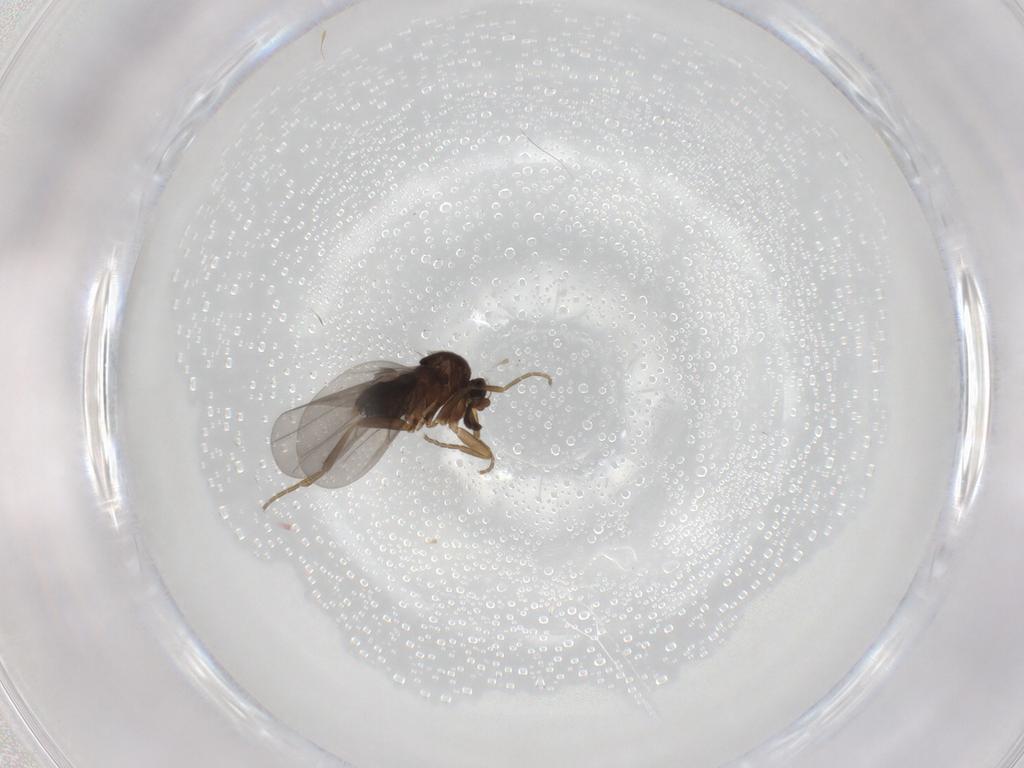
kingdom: Animalia
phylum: Arthropoda
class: Insecta
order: Diptera
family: Phoridae
